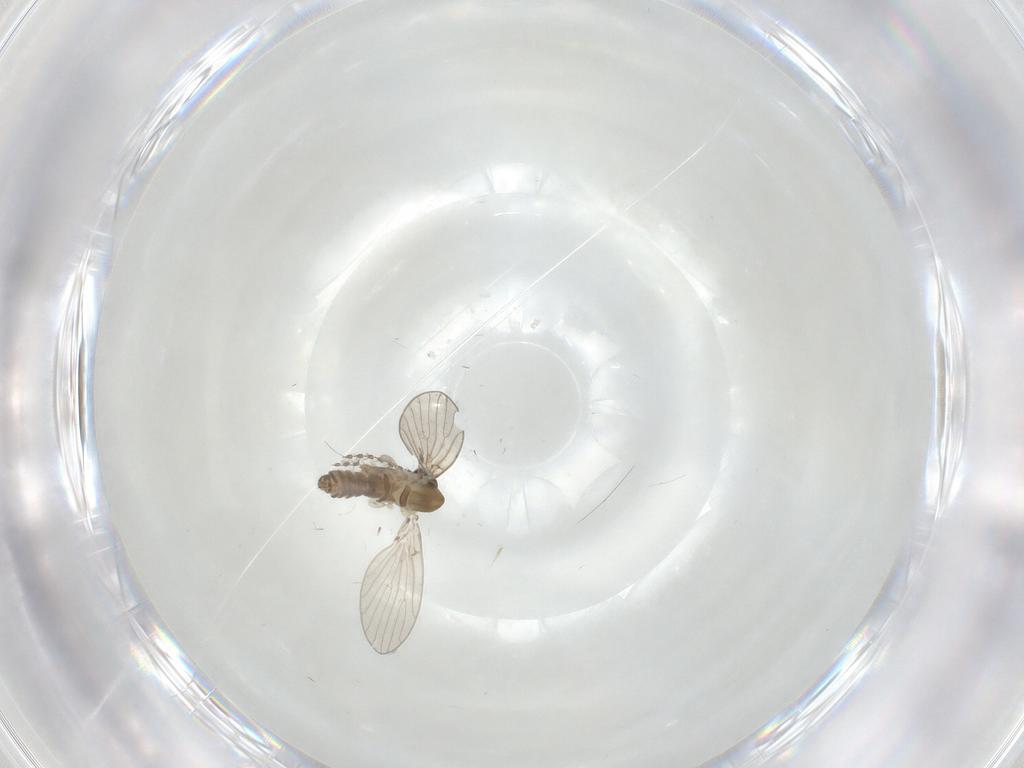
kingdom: Animalia
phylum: Arthropoda
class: Insecta
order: Diptera
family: Psychodidae
